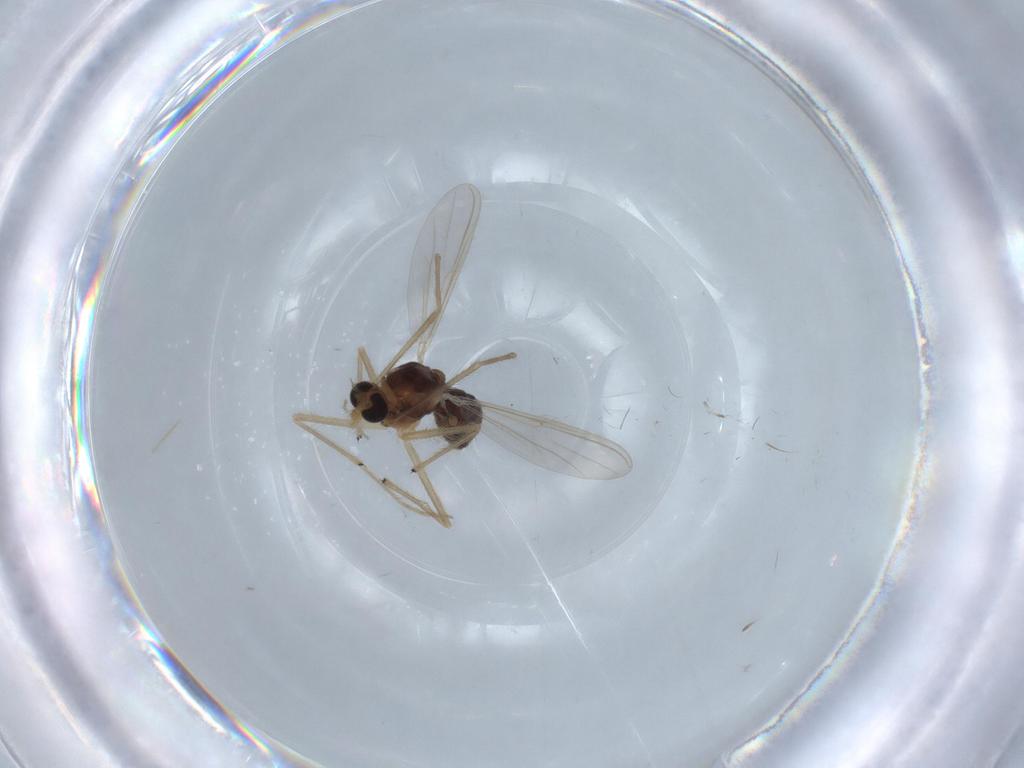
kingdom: Animalia
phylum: Arthropoda
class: Insecta
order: Diptera
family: Chironomidae
